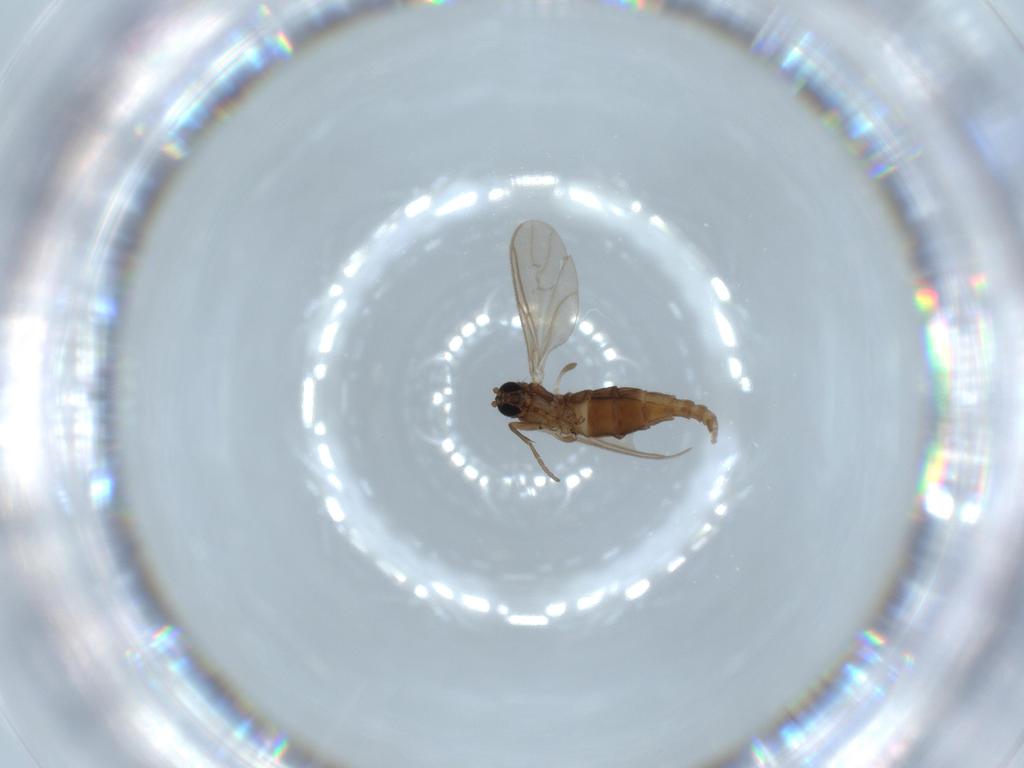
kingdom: Animalia
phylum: Arthropoda
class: Insecta
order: Diptera
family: Sciaridae
